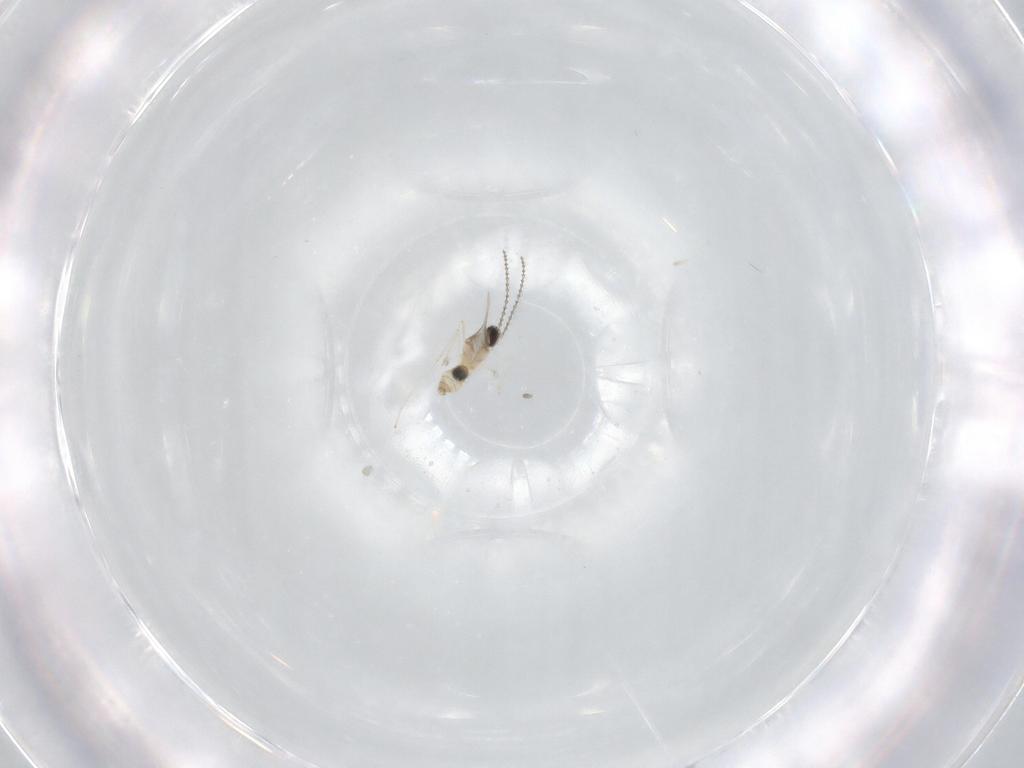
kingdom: Animalia
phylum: Arthropoda
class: Insecta
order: Diptera
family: Cecidomyiidae
